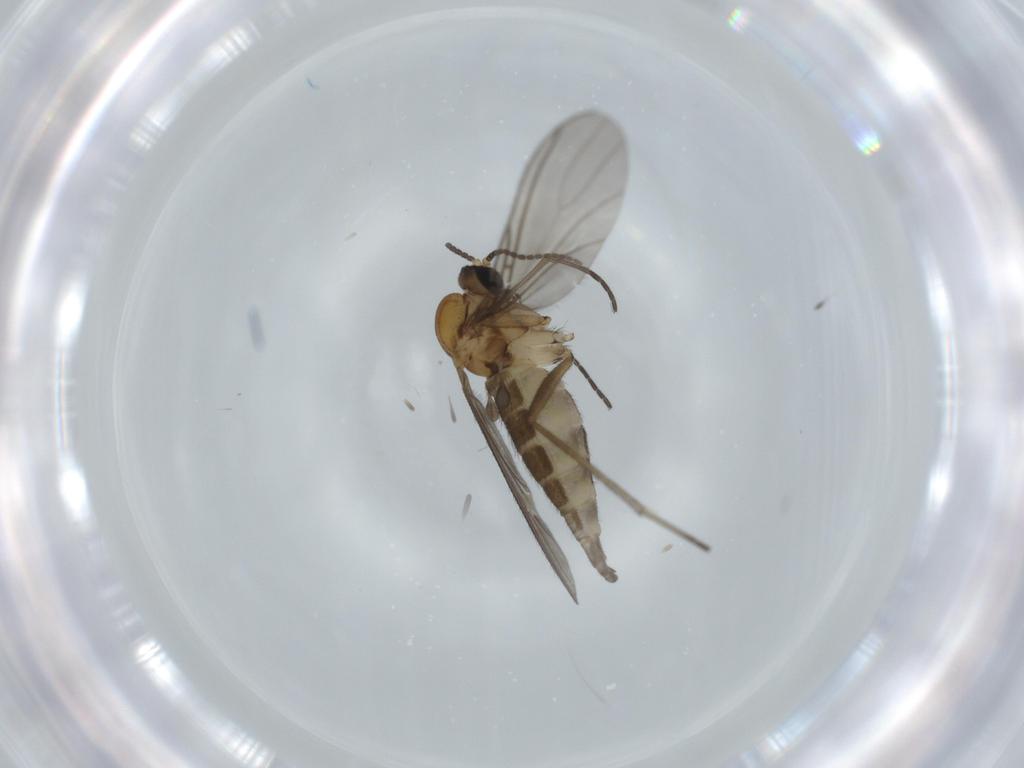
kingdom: Animalia
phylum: Arthropoda
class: Insecta
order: Diptera
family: Sciaridae
